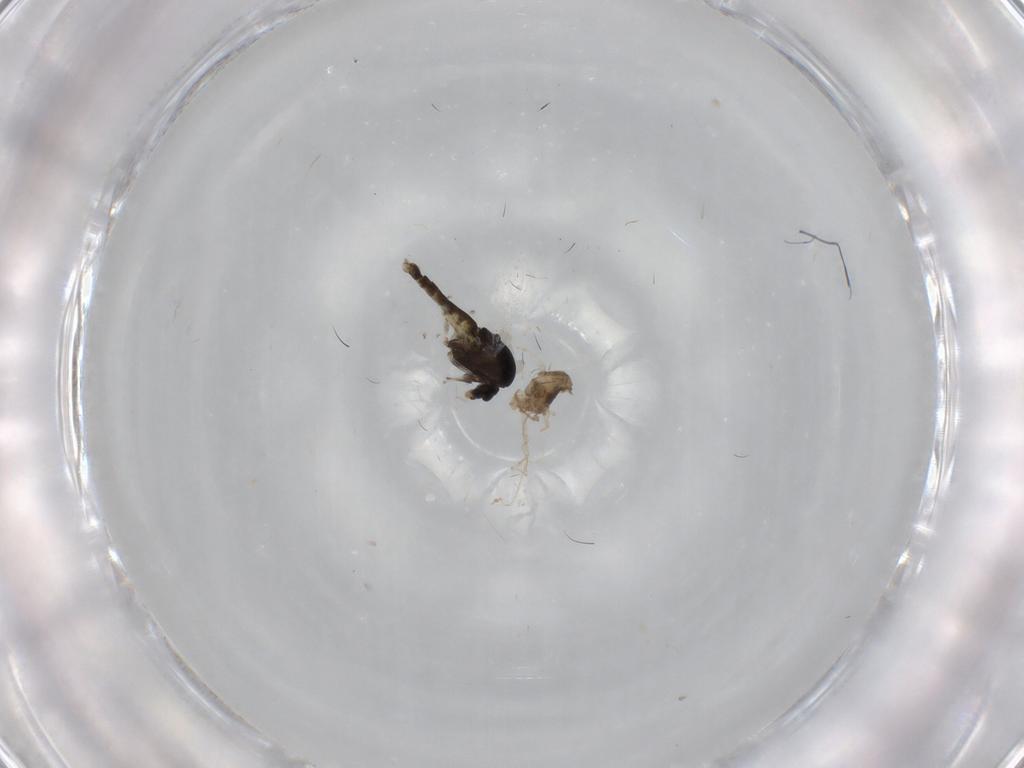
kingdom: Animalia
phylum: Arthropoda
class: Insecta
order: Diptera
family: Chironomidae
